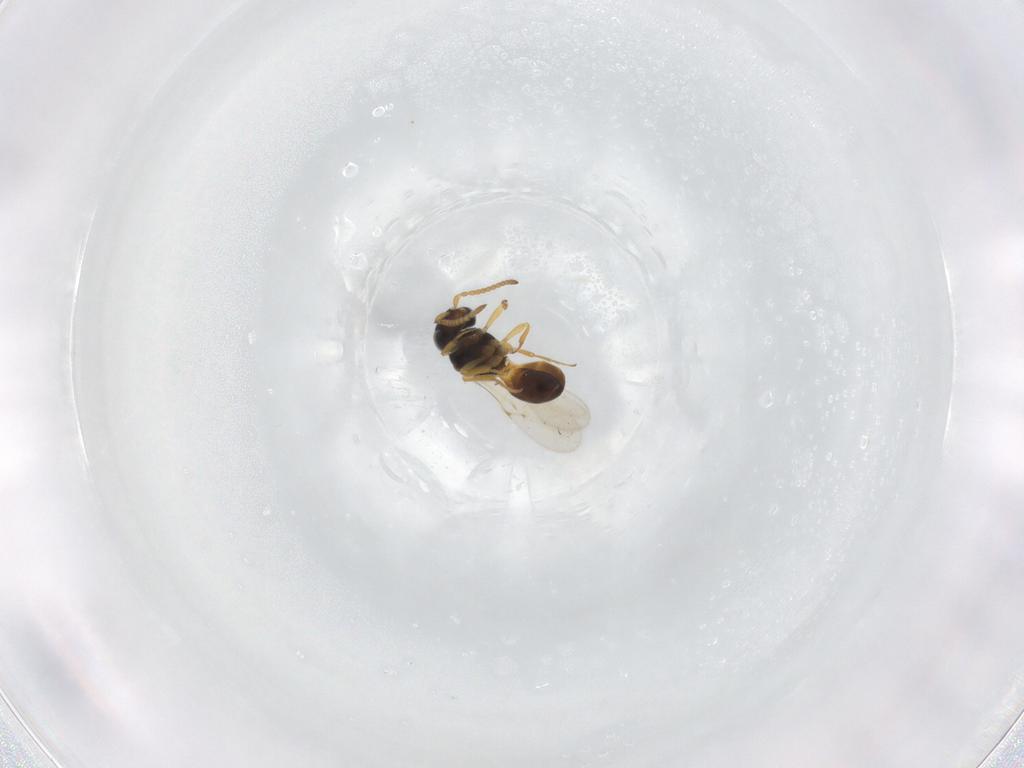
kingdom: Animalia
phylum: Arthropoda
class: Insecta
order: Hymenoptera
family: Scelionidae
